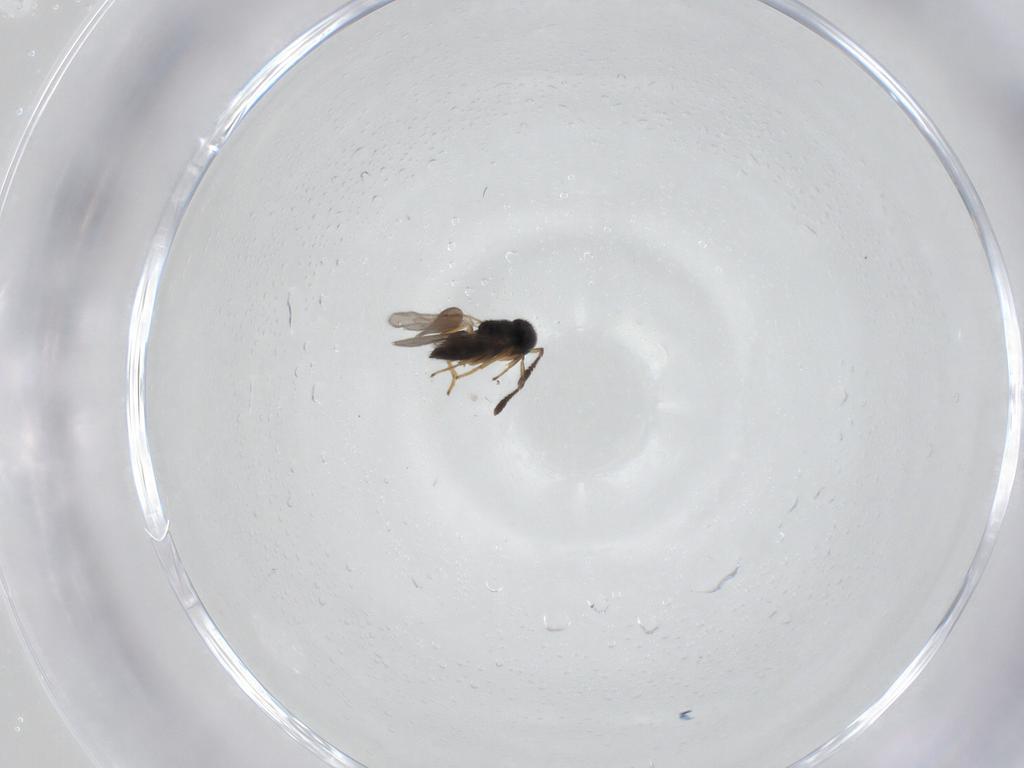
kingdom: Animalia
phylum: Arthropoda
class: Insecta
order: Diptera
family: Sciaridae
